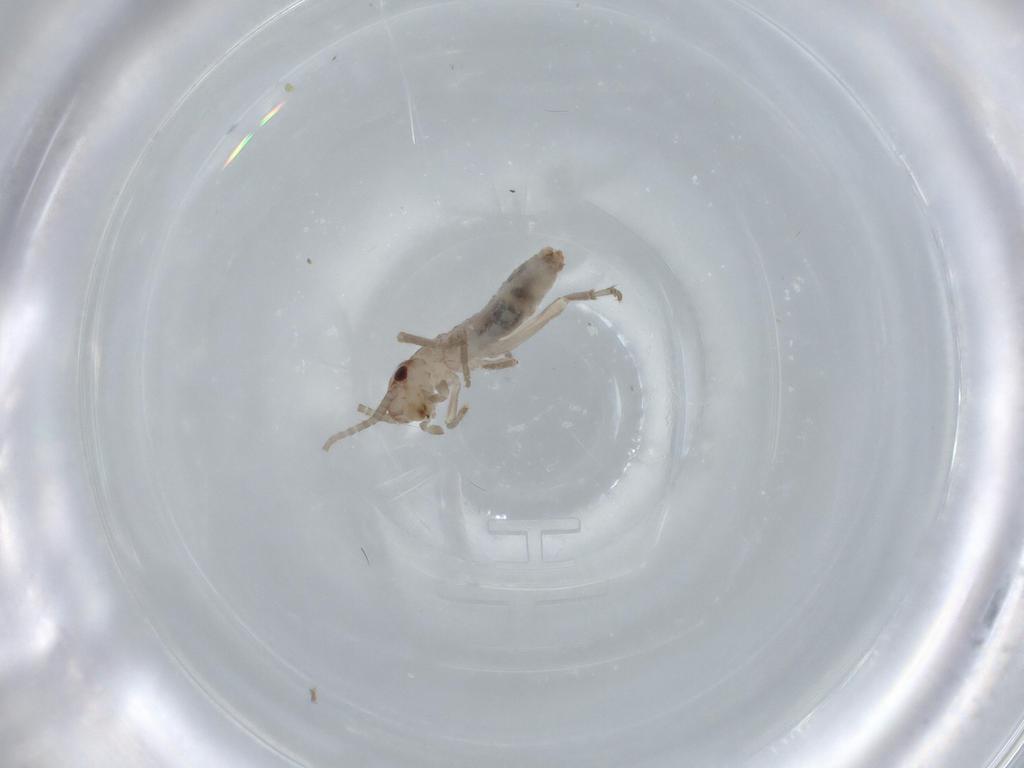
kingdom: Animalia
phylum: Arthropoda
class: Insecta
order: Orthoptera
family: Mogoplistidae
